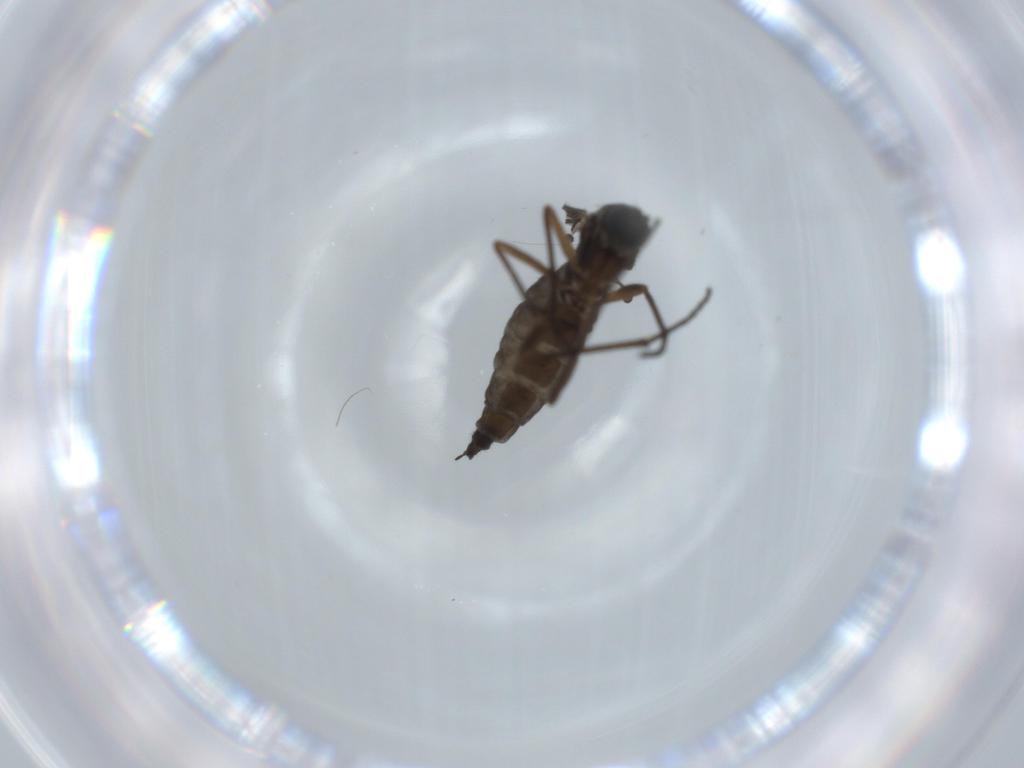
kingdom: Animalia
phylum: Arthropoda
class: Insecta
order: Diptera
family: Sciaridae
